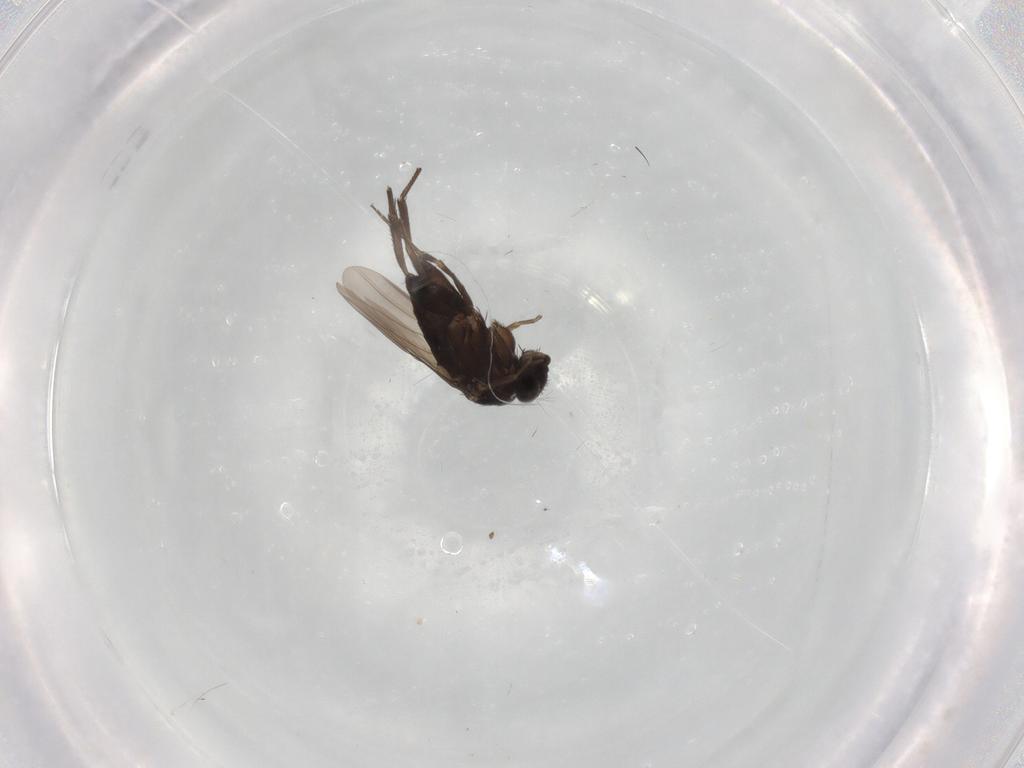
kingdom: Animalia
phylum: Arthropoda
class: Insecta
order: Diptera
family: Phoridae
